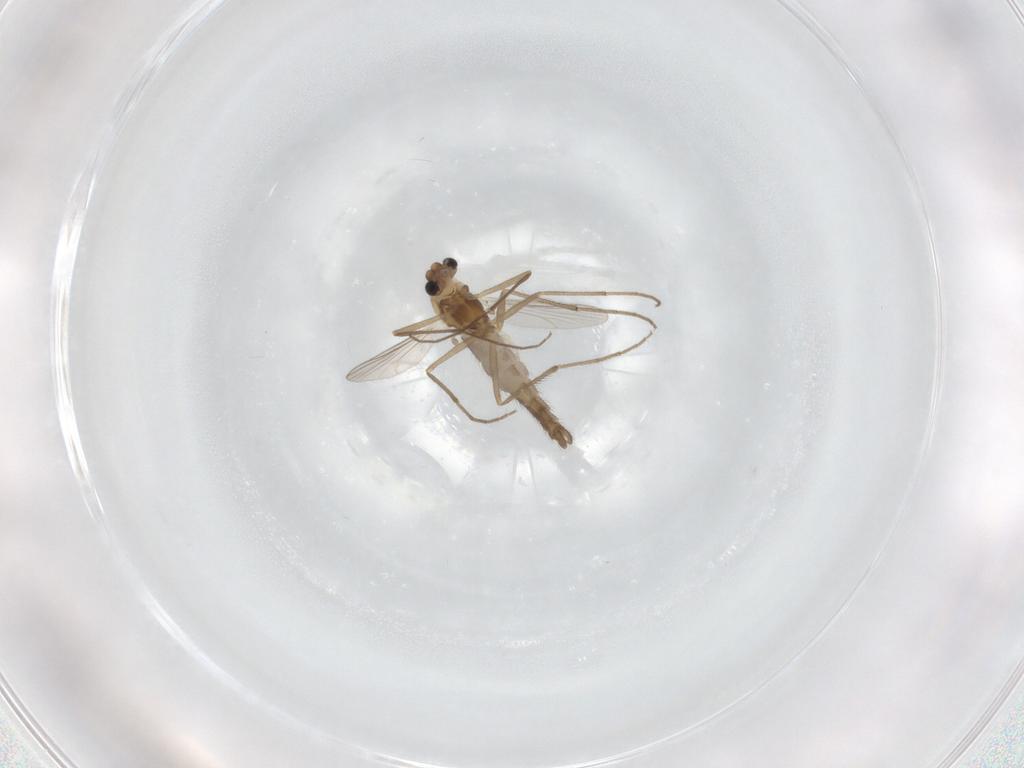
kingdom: Animalia
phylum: Arthropoda
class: Insecta
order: Diptera
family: Chironomidae
